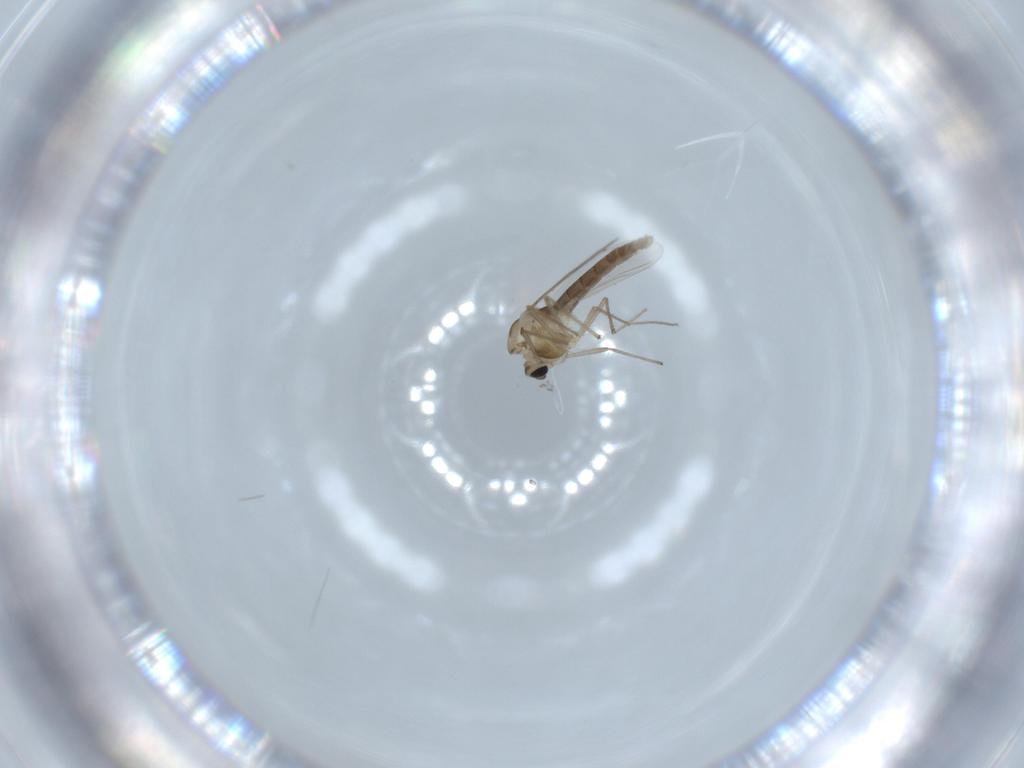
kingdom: Animalia
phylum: Arthropoda
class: Insecta
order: Diptera
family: Chironomidae
